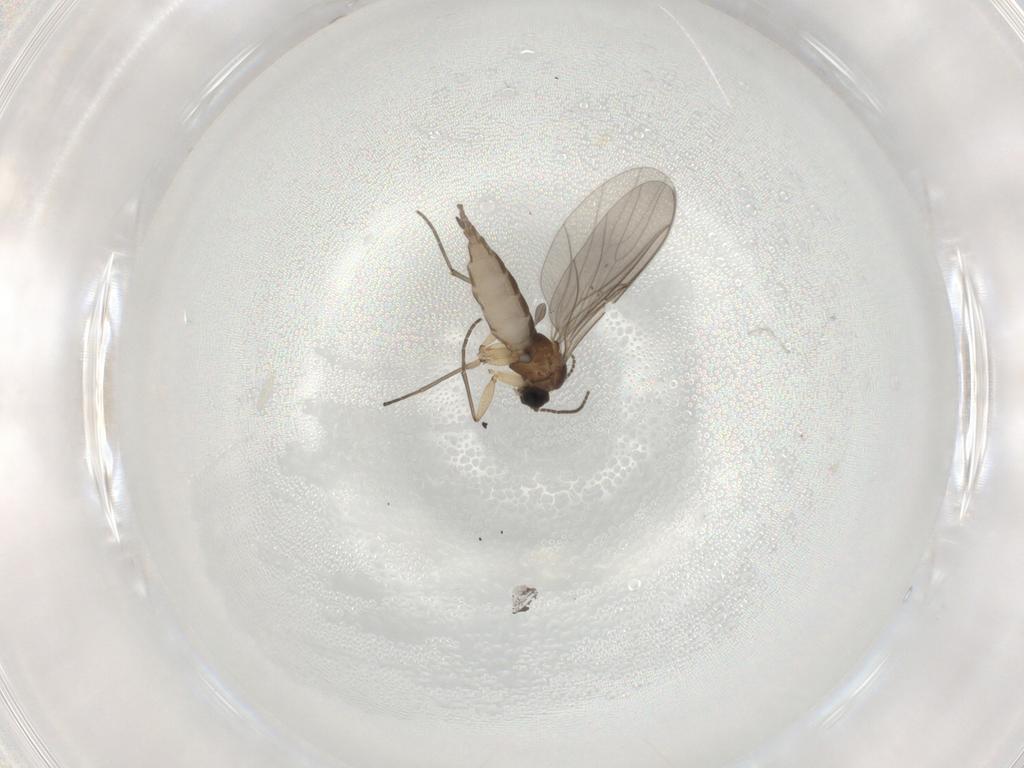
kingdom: Animalia
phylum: Arthropoda
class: Insecta
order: Diptera
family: Sciaridae
